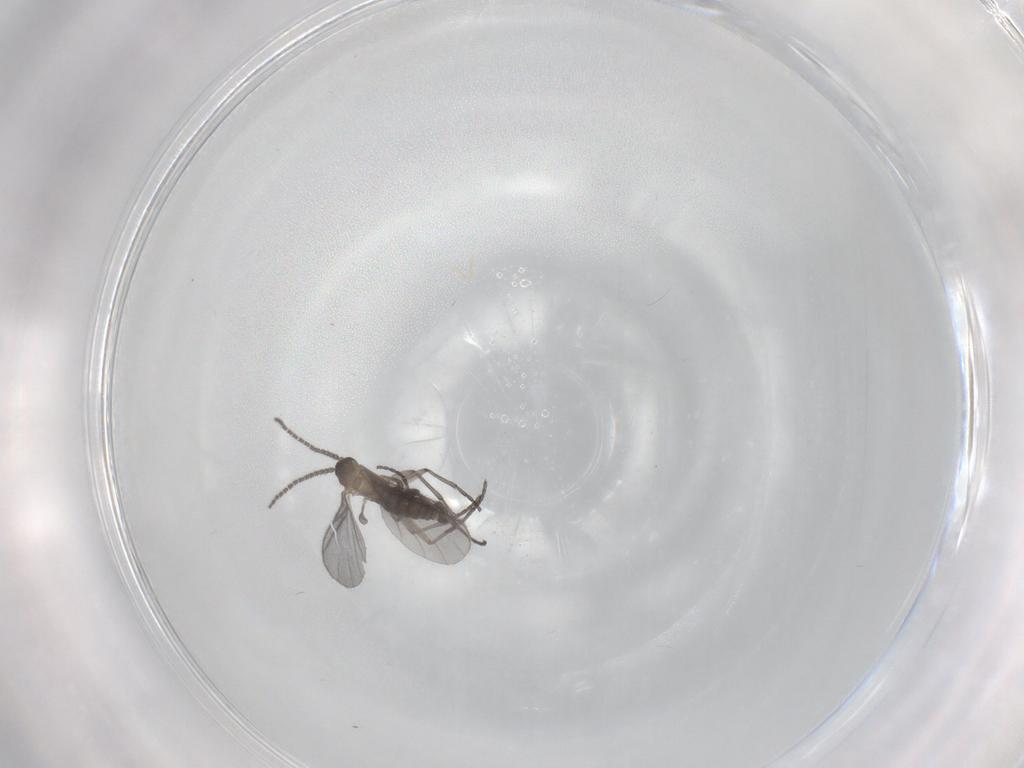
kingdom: Animalia
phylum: Arthropoda
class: Insecta
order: Diptera
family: Sciaridae
